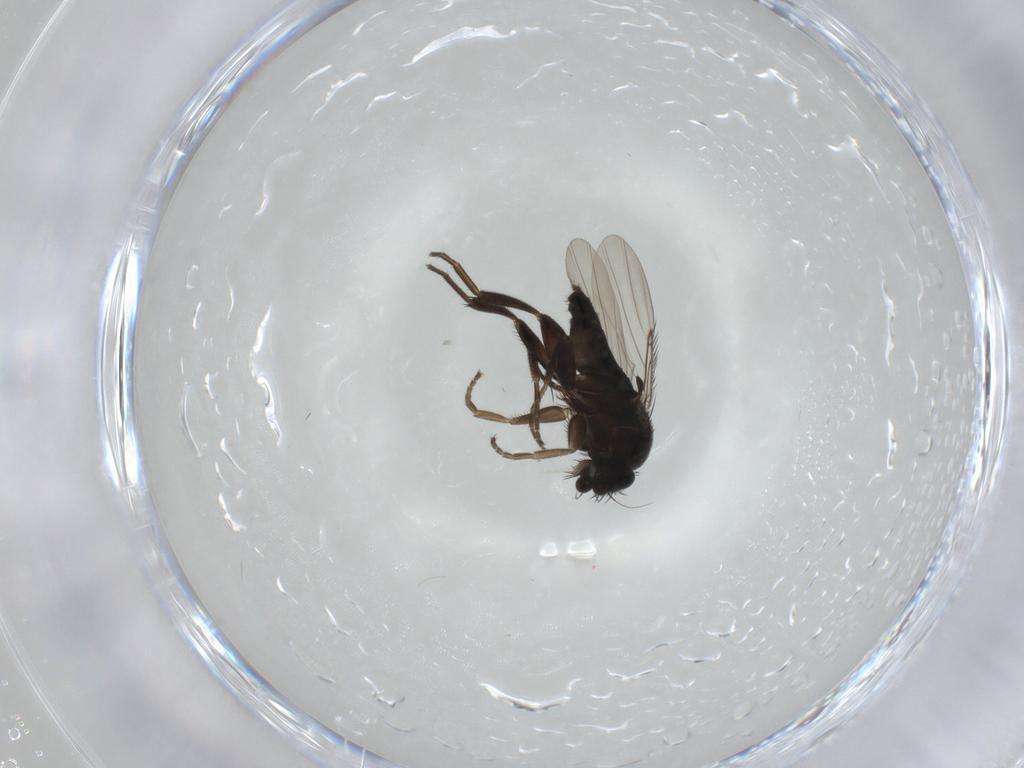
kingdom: Animalia
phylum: Arthropoda
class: Insecta
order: Diptera
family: Phoridae
